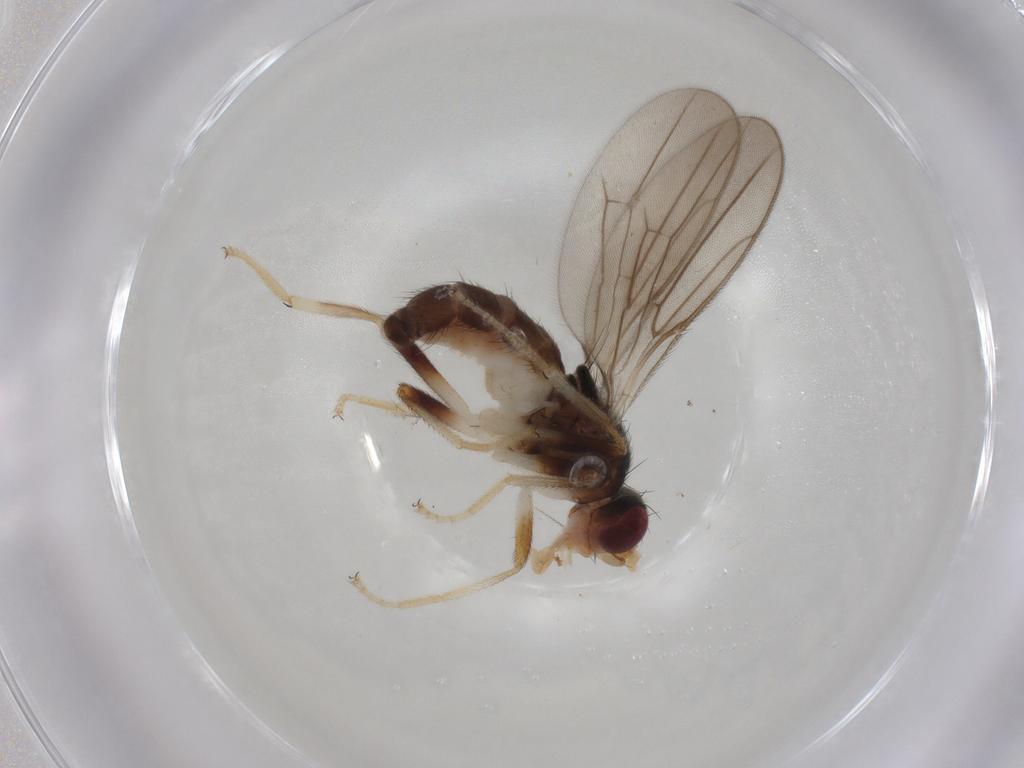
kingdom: Animalia
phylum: Arthropoda
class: Insecta
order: Diptera
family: Chloropidae
